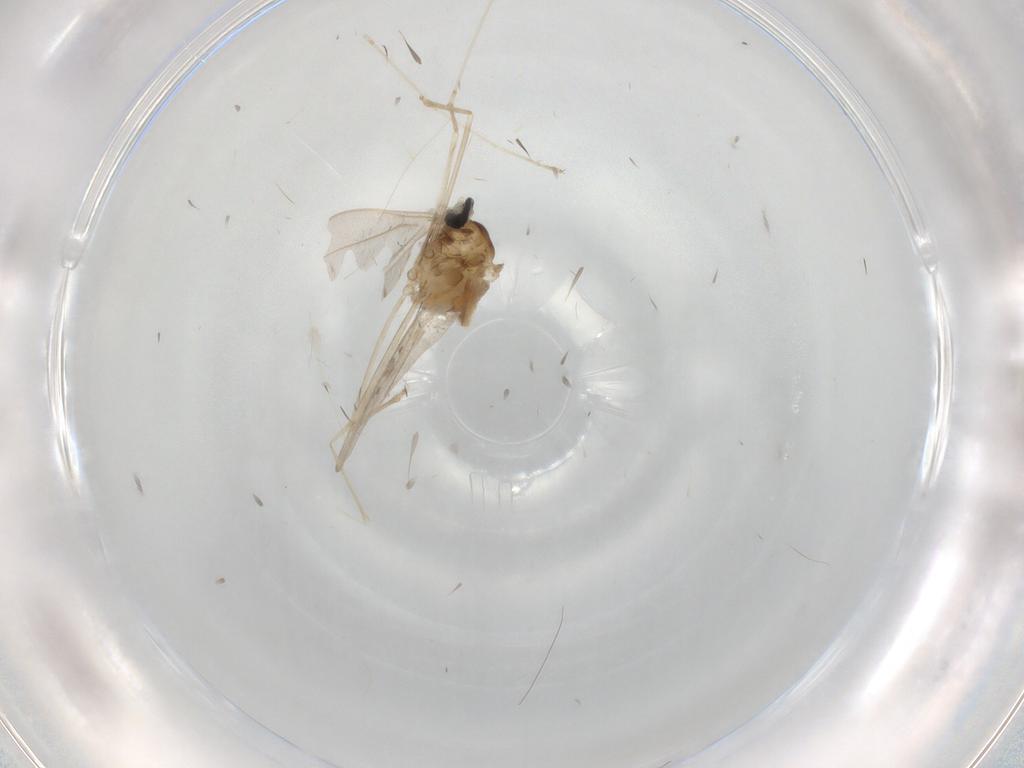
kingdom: Animalia
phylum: Arthropoda
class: Insecta
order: Diptera
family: Cecidomyiidae
